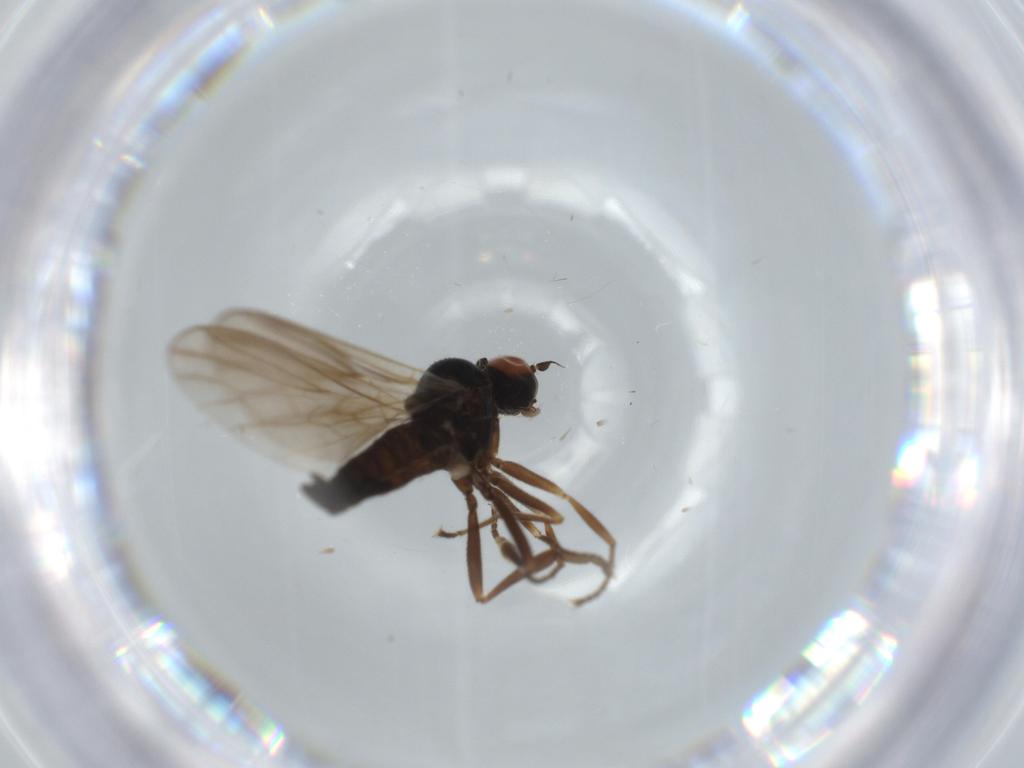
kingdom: Animalia
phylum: Arthropoda
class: Insecta
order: Diptera
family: Hybotidae
